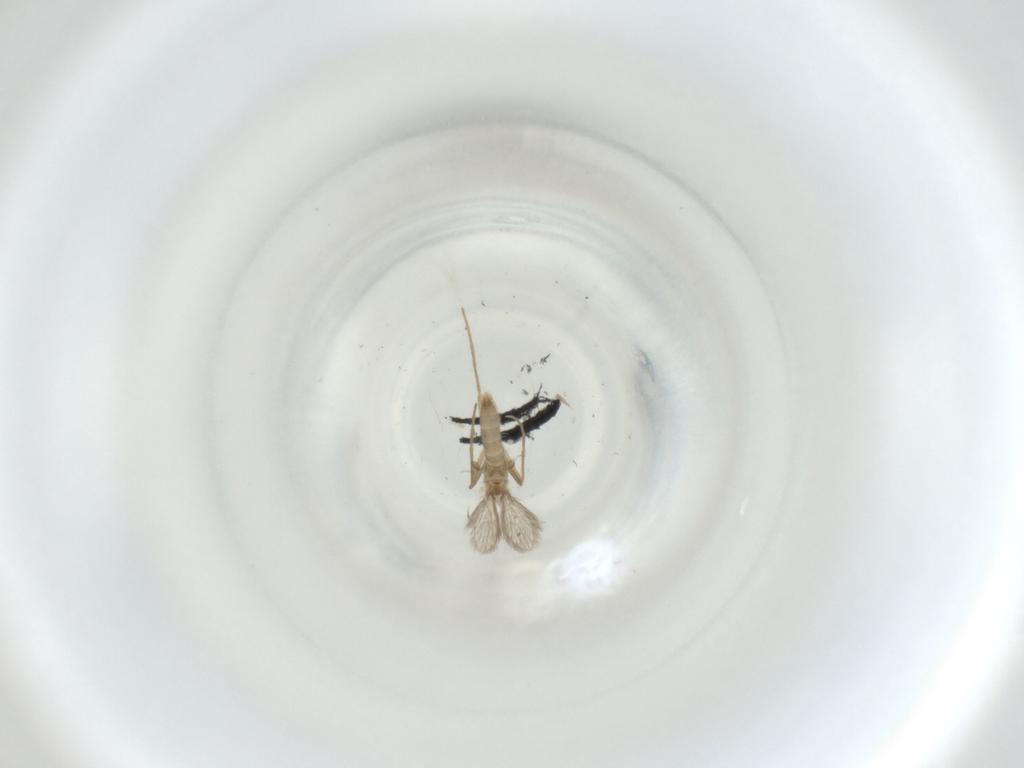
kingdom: Animalia
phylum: Arthropoda
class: Insecta
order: Diptera
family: Psychodidae
